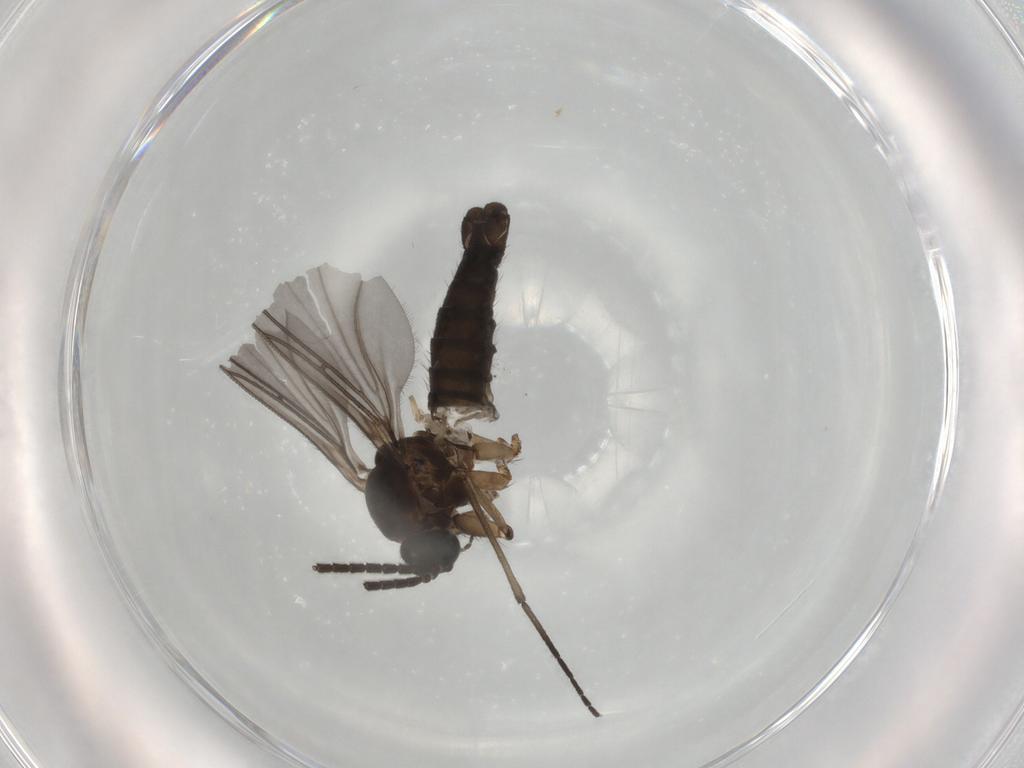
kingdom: Animalia
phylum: Arthropoda
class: Insecta
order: Diptera
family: Sciaridae
